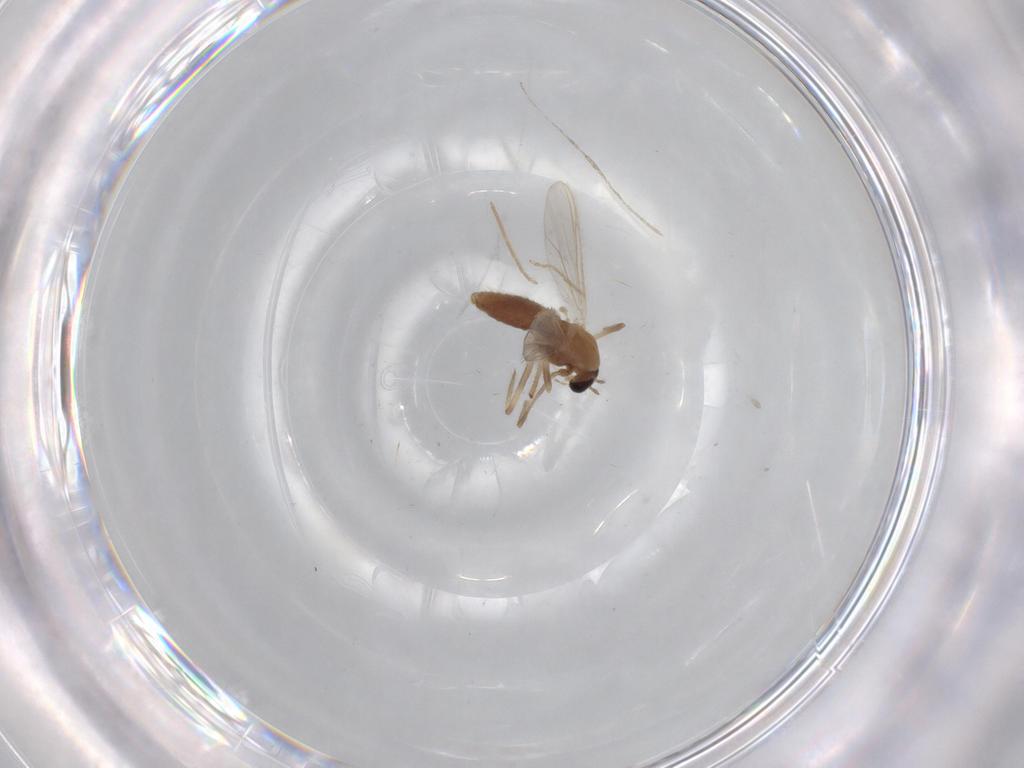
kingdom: Animalia
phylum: Arthropoda
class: Insecta
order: Diptera
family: Chironomidae
